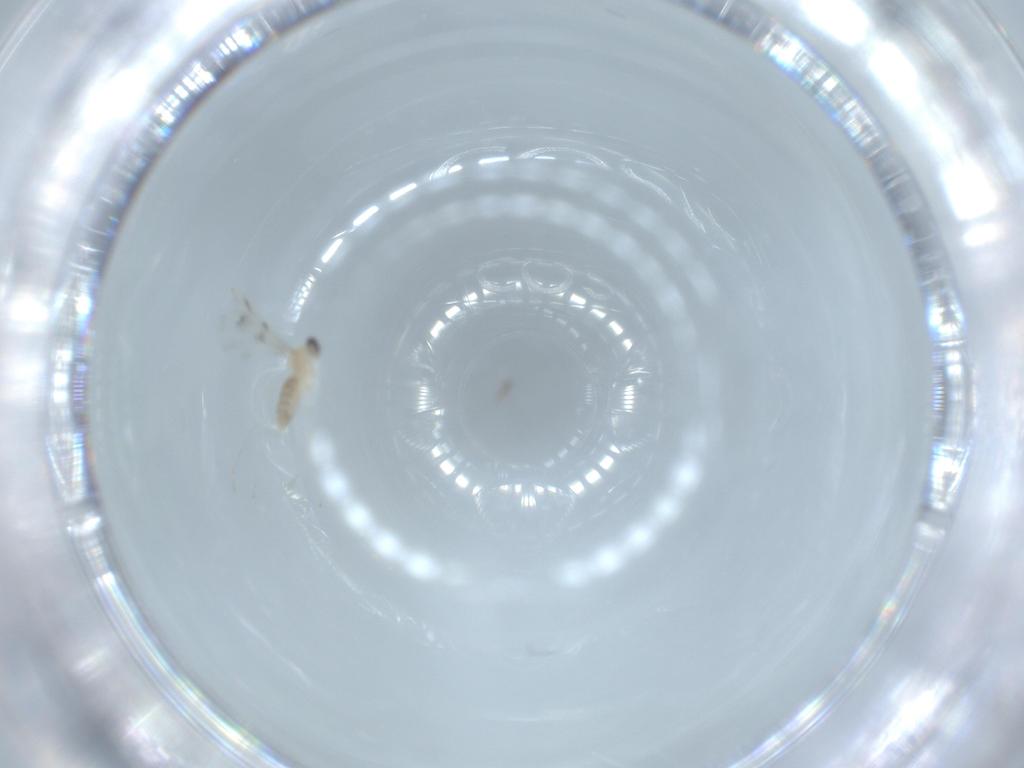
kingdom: Animalia
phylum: Arthropoda
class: Insecta
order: Diptera
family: Cecidomyiidae
